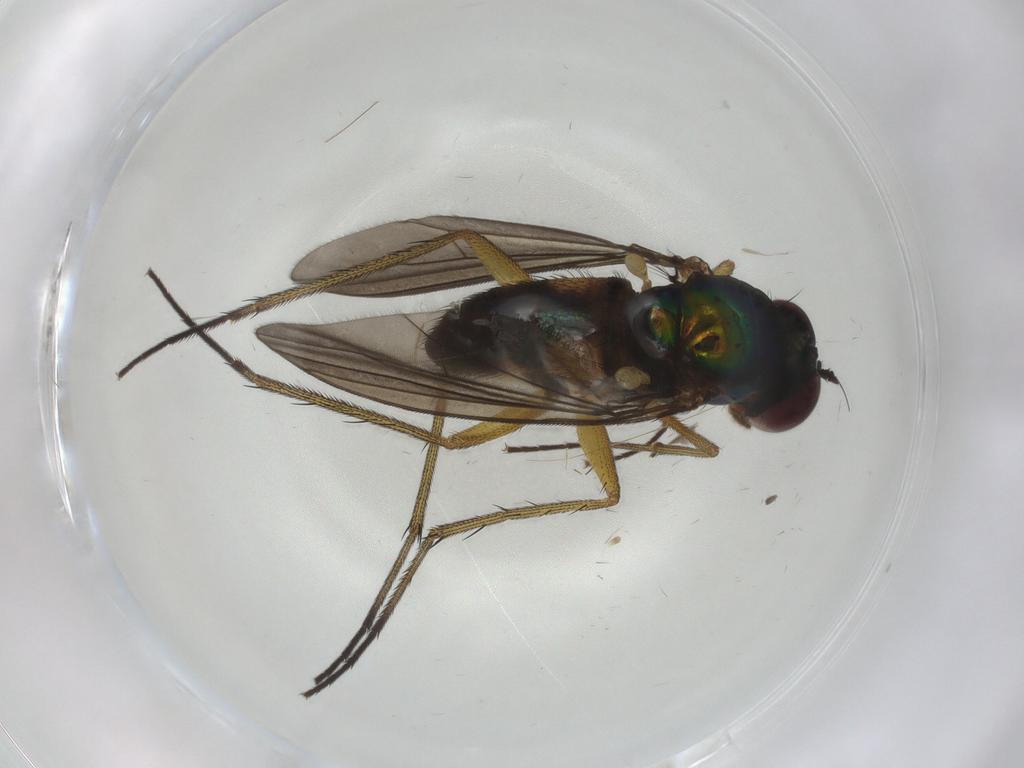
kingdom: Animalia
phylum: Arthropoda
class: Insecta
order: Diptera
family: Dolichopodidae
